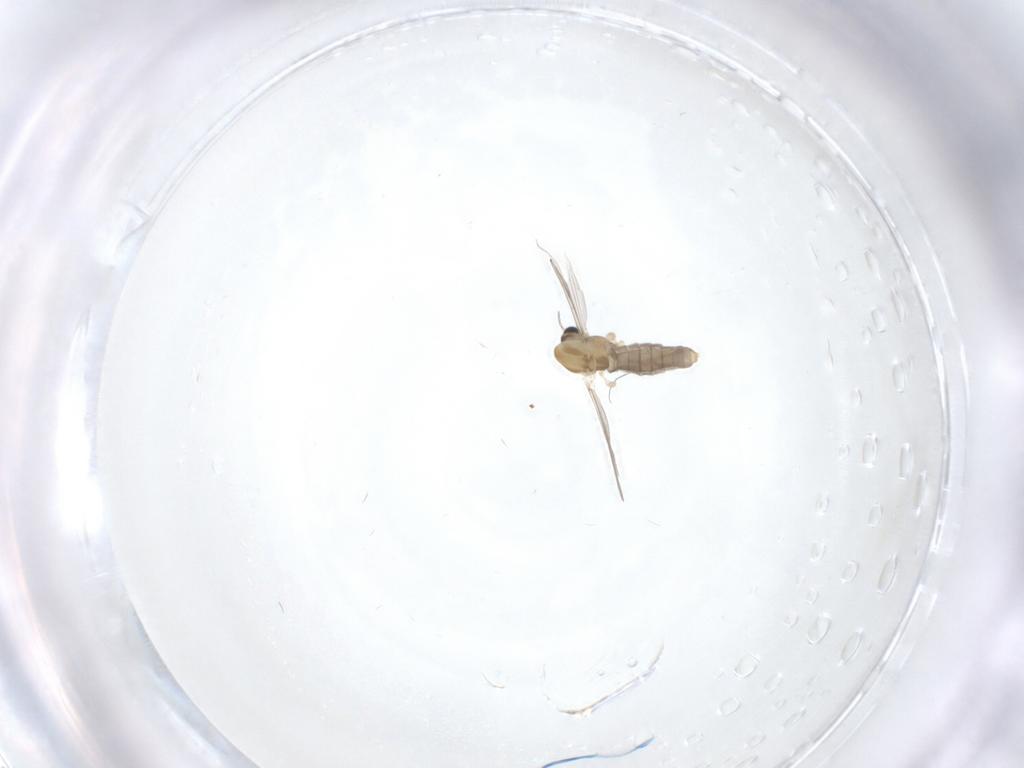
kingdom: Animalia
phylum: Arthropoda
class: Insecta
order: Diptera
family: Chironomidae
